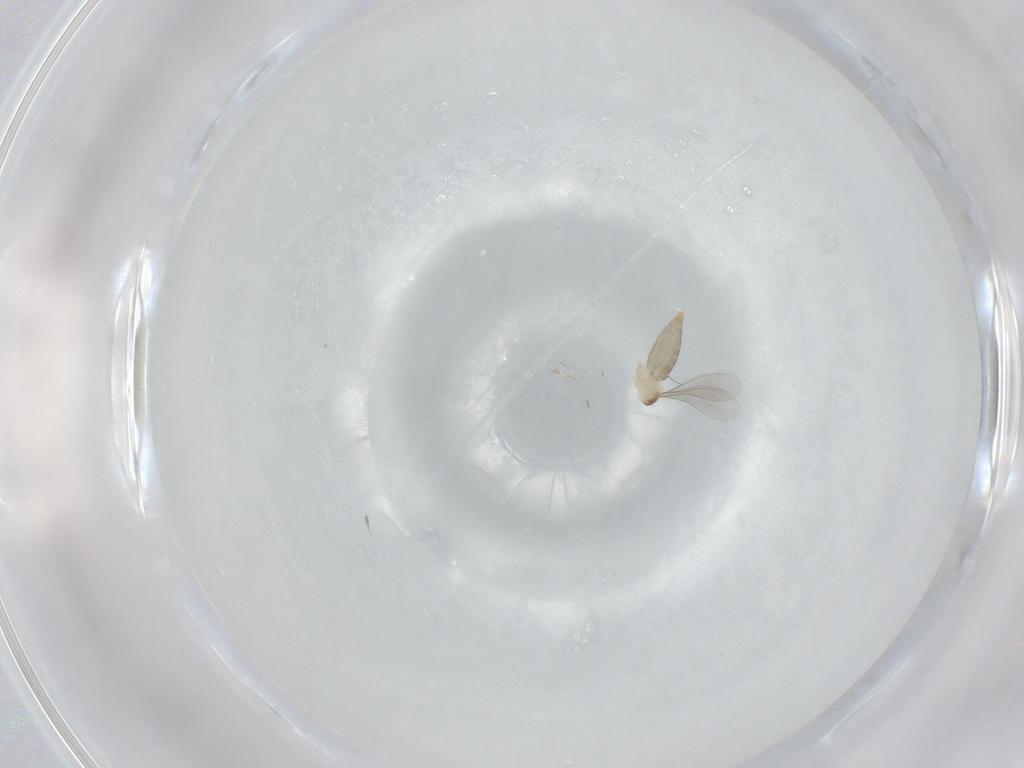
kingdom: Animalia
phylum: Arthropoda
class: Insecta
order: Diptera
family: Cecidomyiidae
